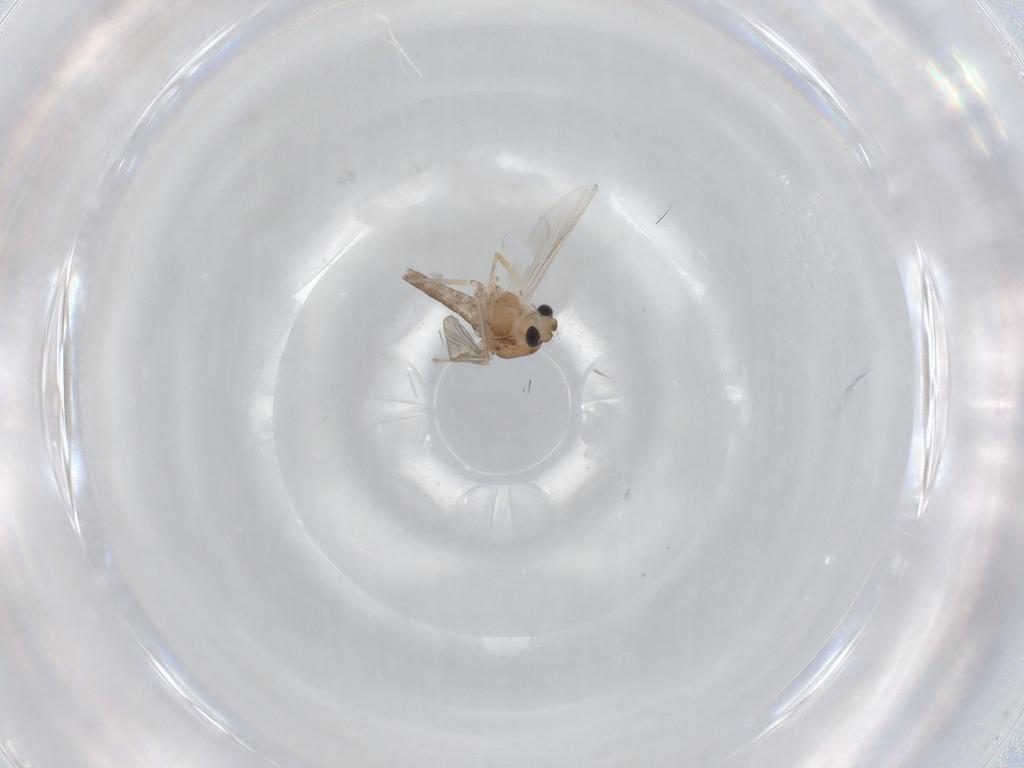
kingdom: Animalia
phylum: Arthropoda
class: Insecta
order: Diptera
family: Chironomidae
